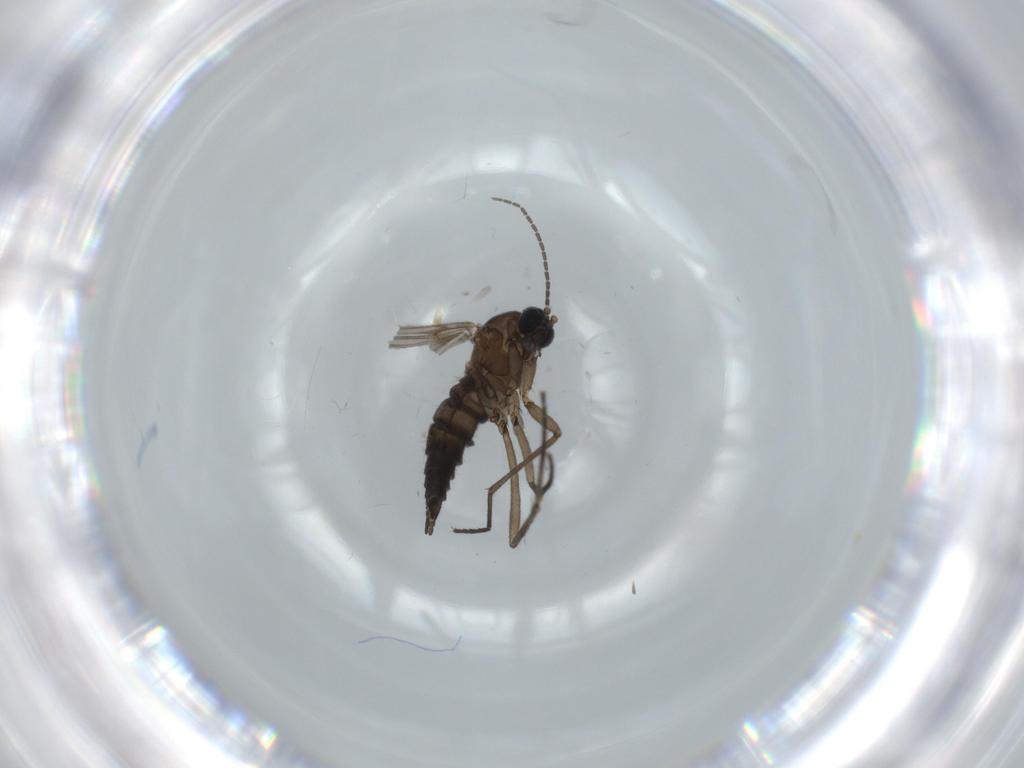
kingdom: Animalia
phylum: Arthropoda
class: Insecta
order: Diptera
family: Sciaridae
